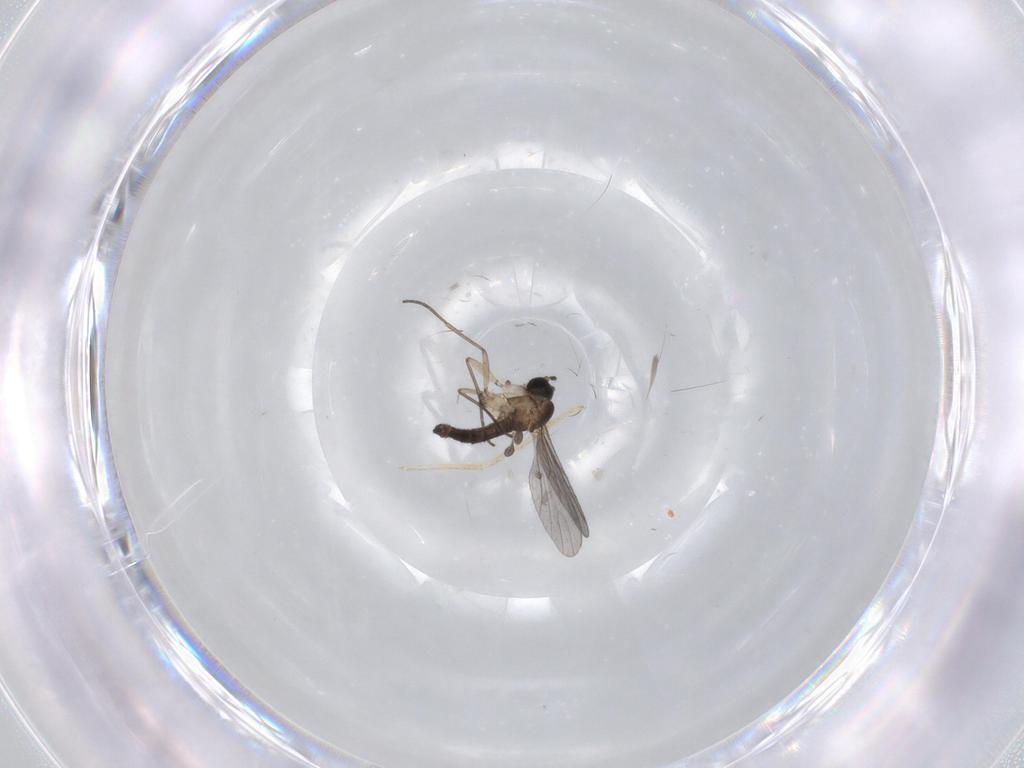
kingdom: Animalia
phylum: Arthropoda
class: Insecta
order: Diptera
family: Sciaridae
